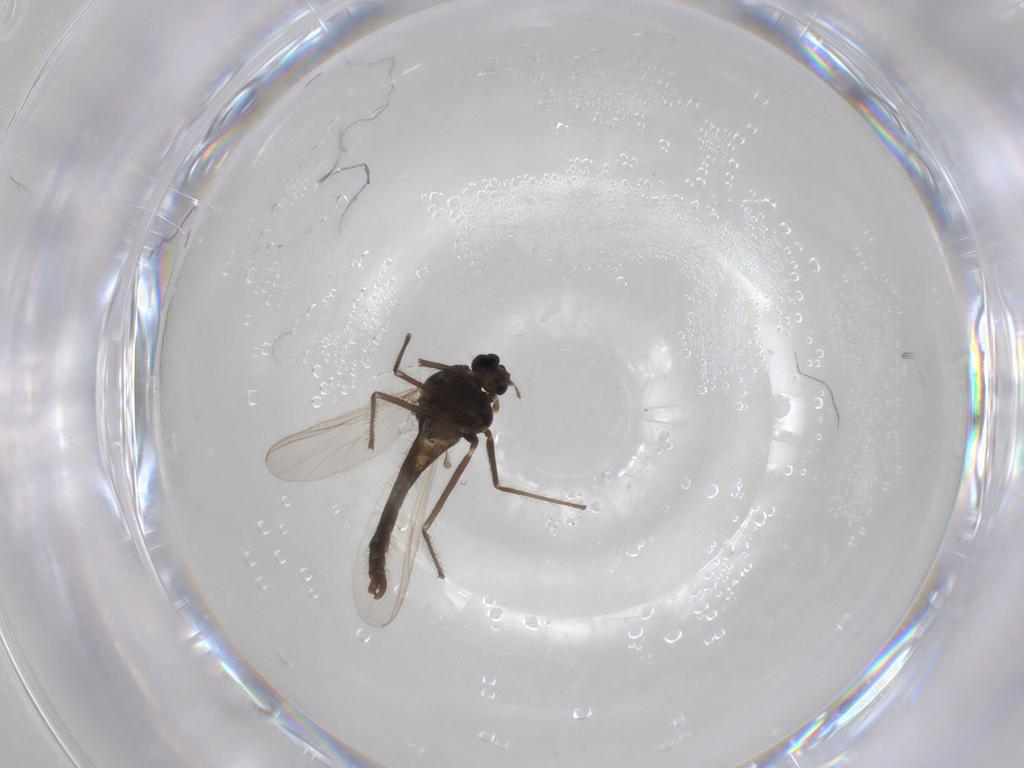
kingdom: Animalia
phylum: Arthropoda
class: Insecta
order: Diptera
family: Chironomidae
